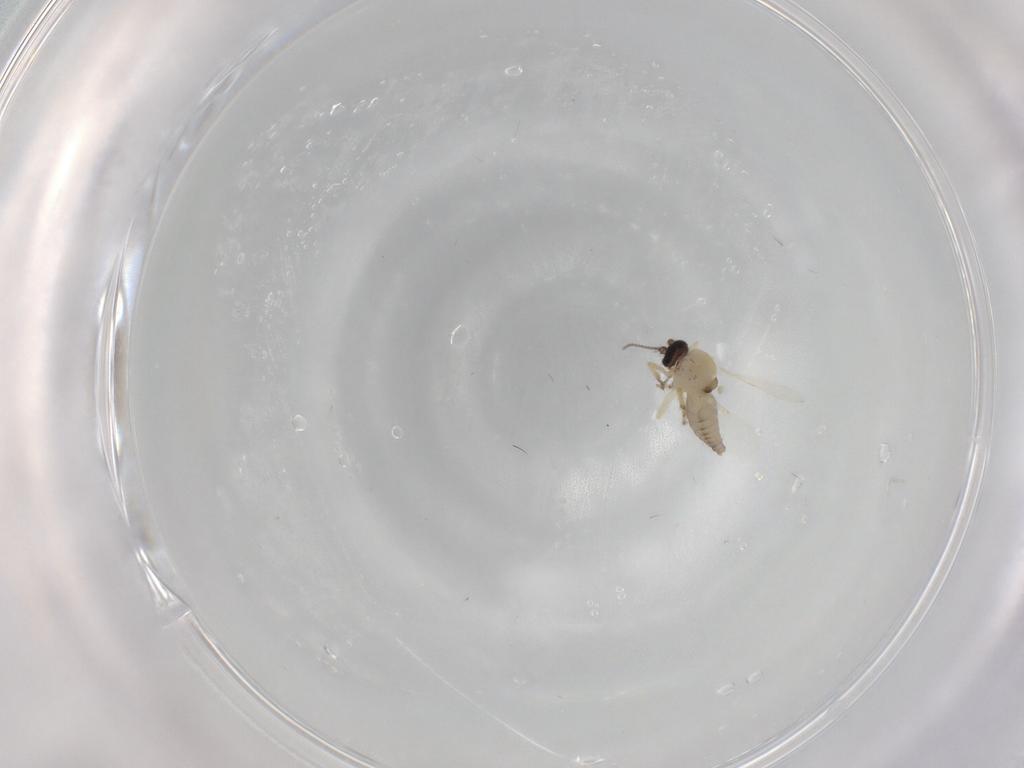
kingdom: Animalia
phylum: Arthropoda
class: Insecta
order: Diptera
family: Ceratopogonidae
